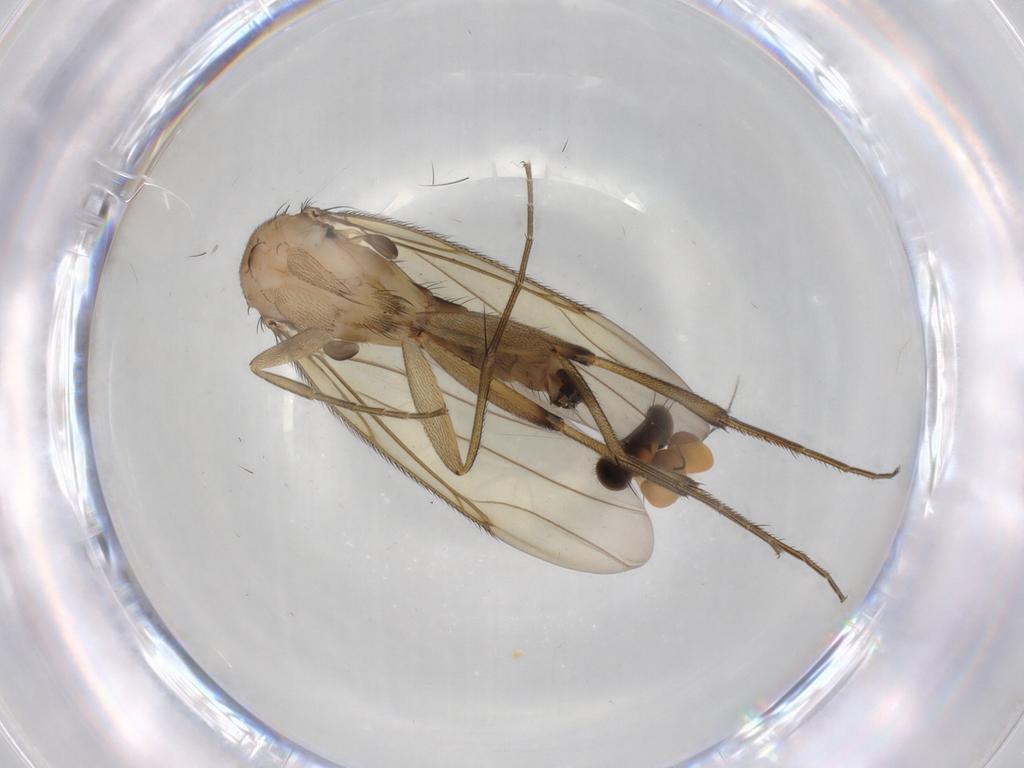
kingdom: Animalia
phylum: Arthropoda
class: Insecta
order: Diptera
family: Phoridae
